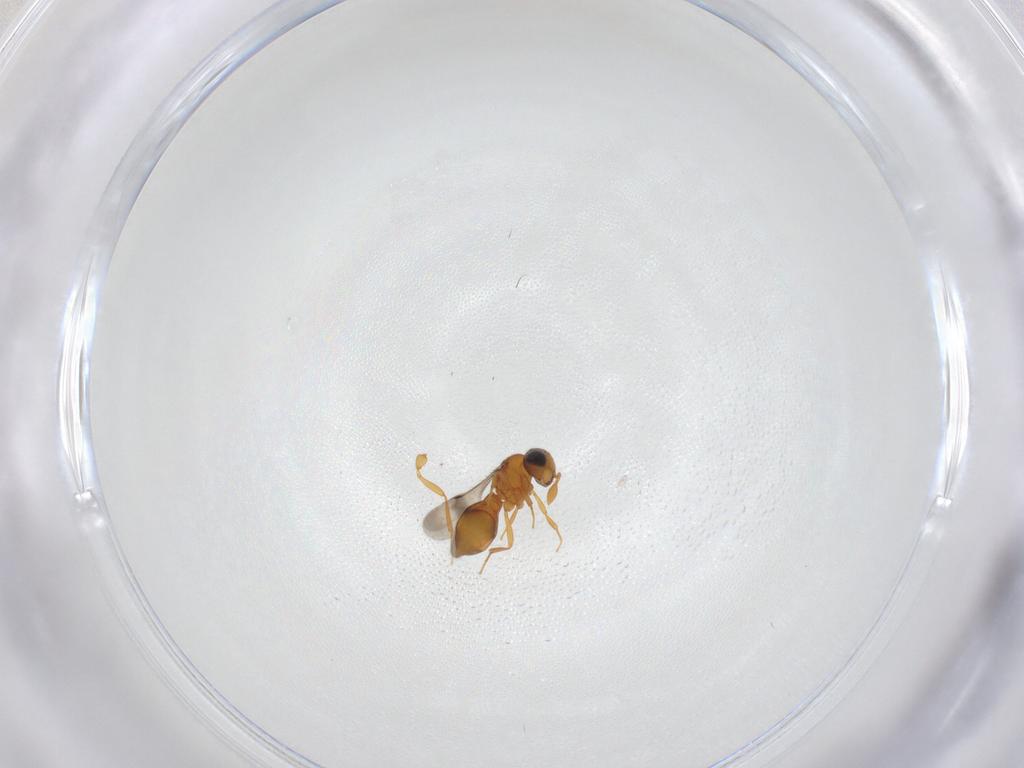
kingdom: Animalia
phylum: Arthropoda
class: Insecta
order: Hymenoptera
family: Scelionidae
